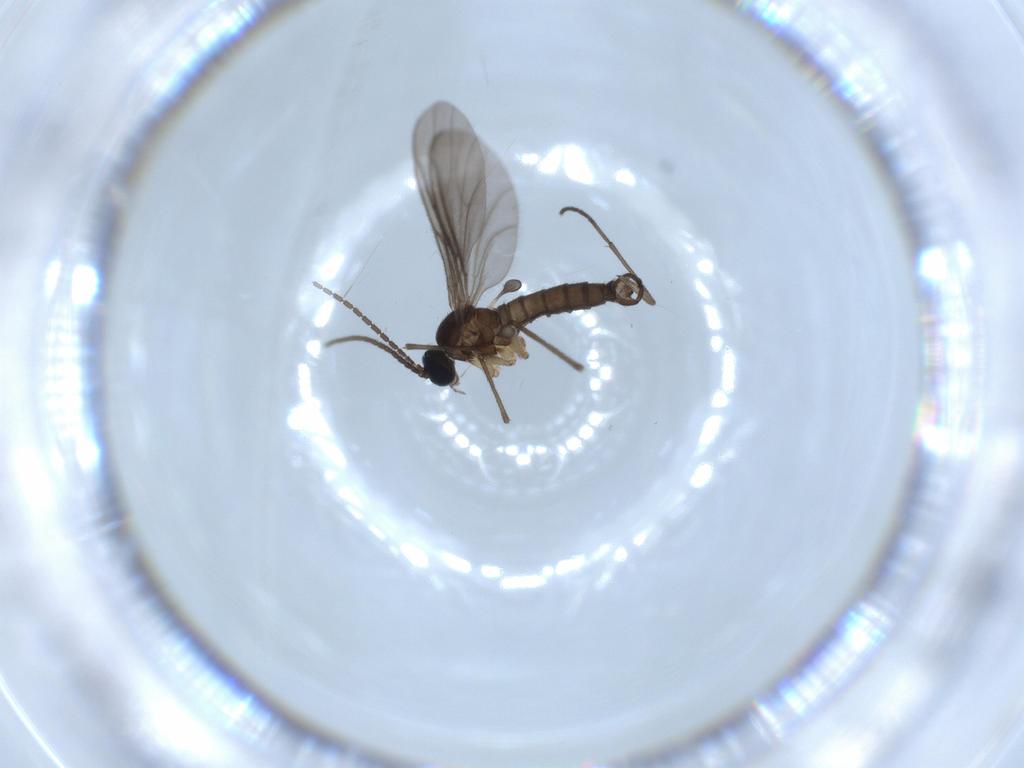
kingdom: Animalia
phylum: Arthropoda
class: Insecta
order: Diptera
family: Sciaridae
